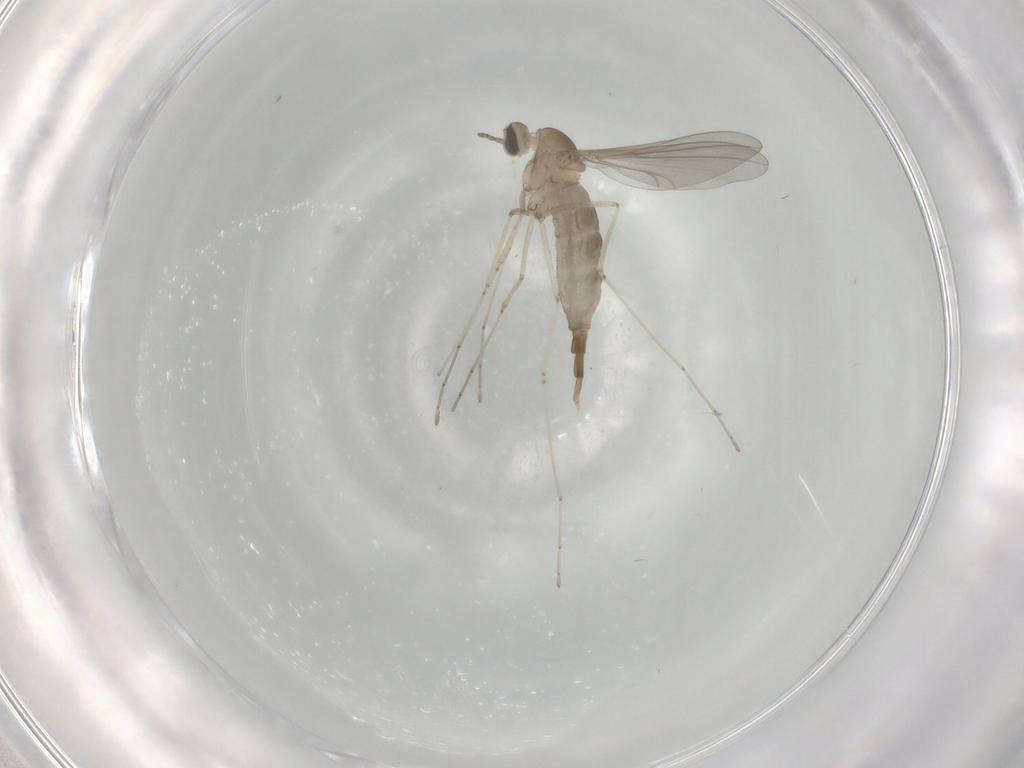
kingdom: Animalia
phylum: Arthropoda
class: Insecta
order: Diptera
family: Cecidomyiidae
